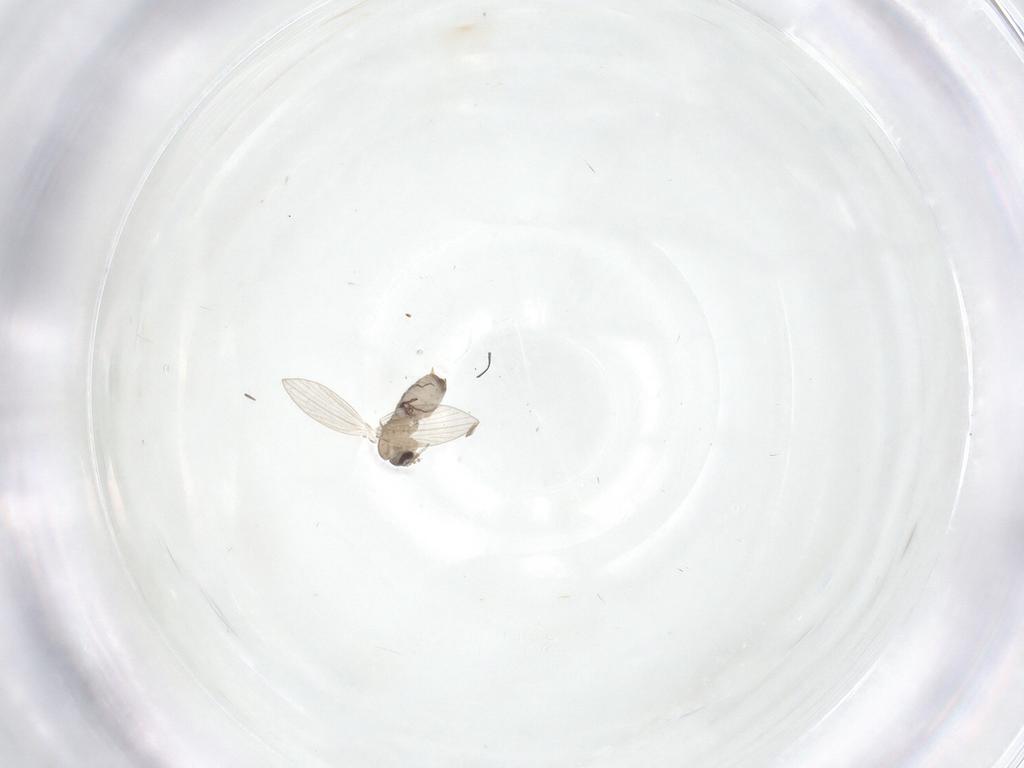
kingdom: Animalia
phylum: Arthropoda
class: Insecta
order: Diptera
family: Psychodidae
